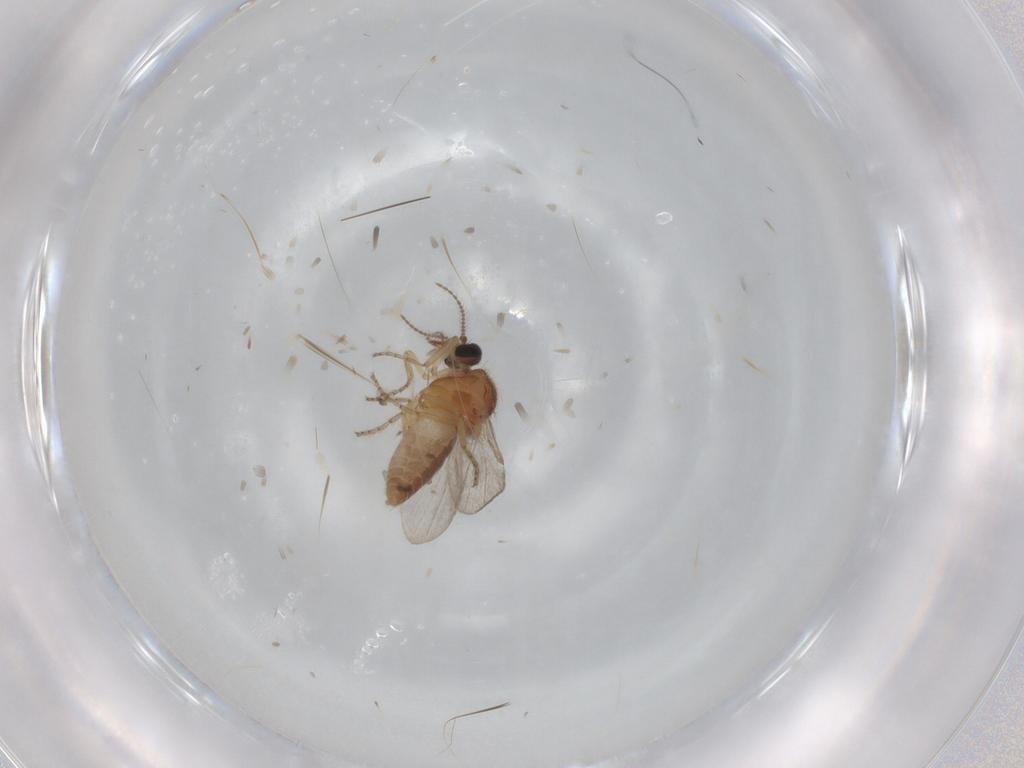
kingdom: Animalia
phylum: Arthropoda
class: Insecta
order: Diptera
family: Ceratopogonidae
